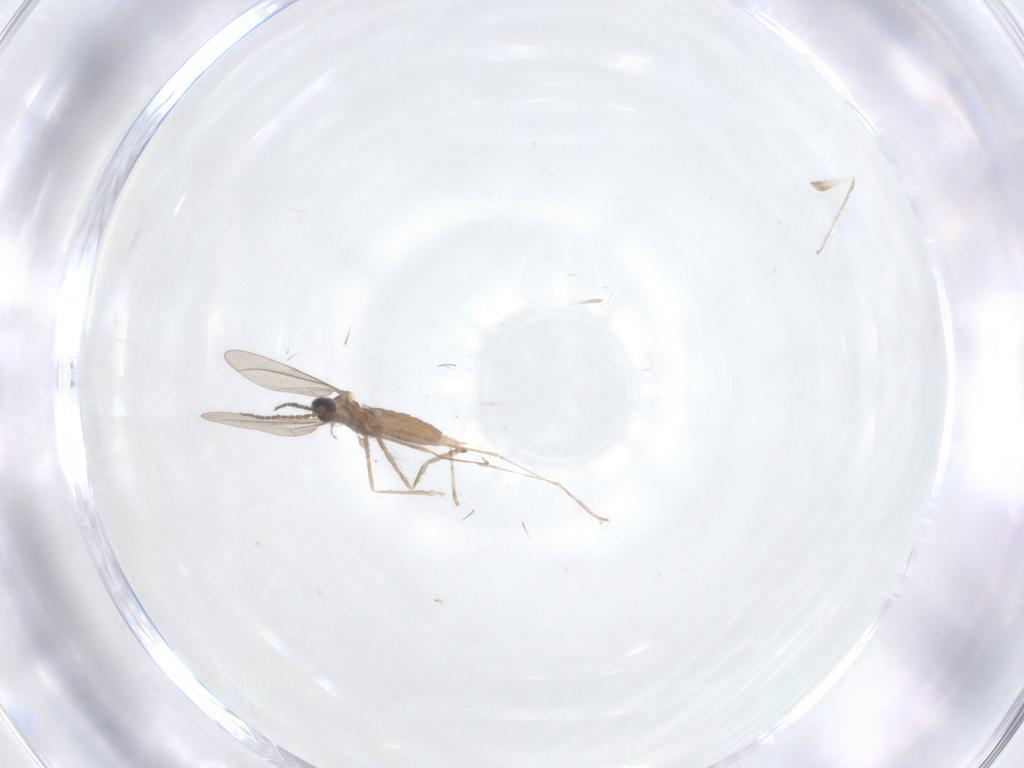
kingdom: Animalia
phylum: Arthropoda
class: Insecta
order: Diptera
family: Cecidomyiidae
